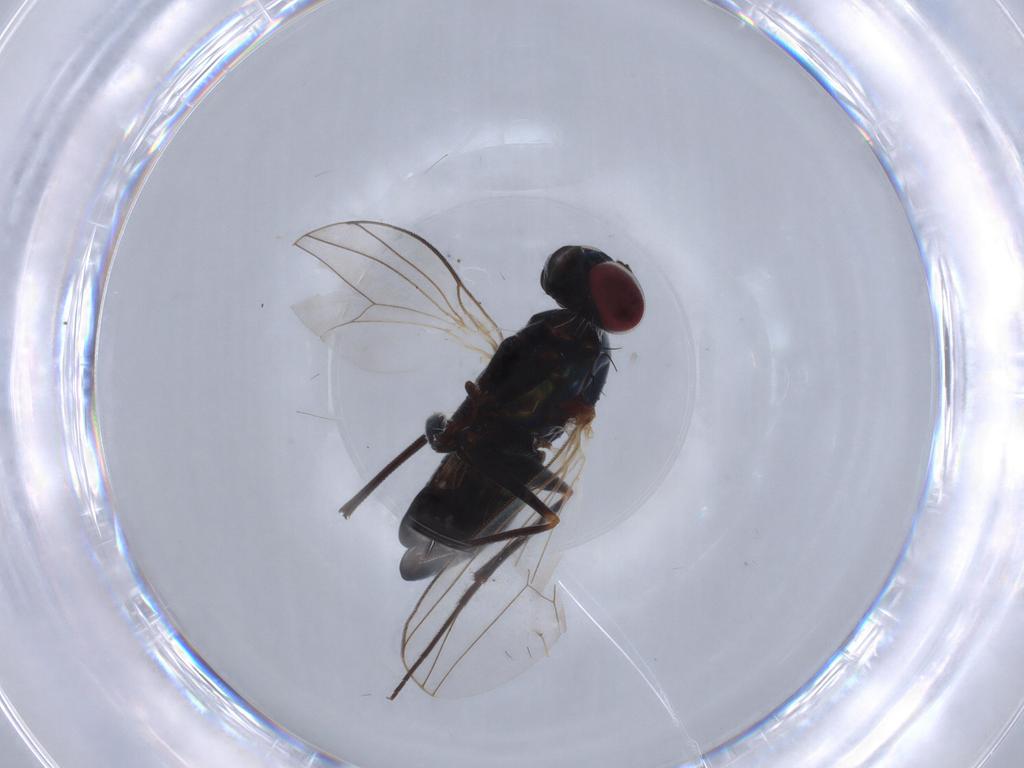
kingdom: Animalia
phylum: Arthropoda
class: Insecta
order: Diptera
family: Dolichopodidae
